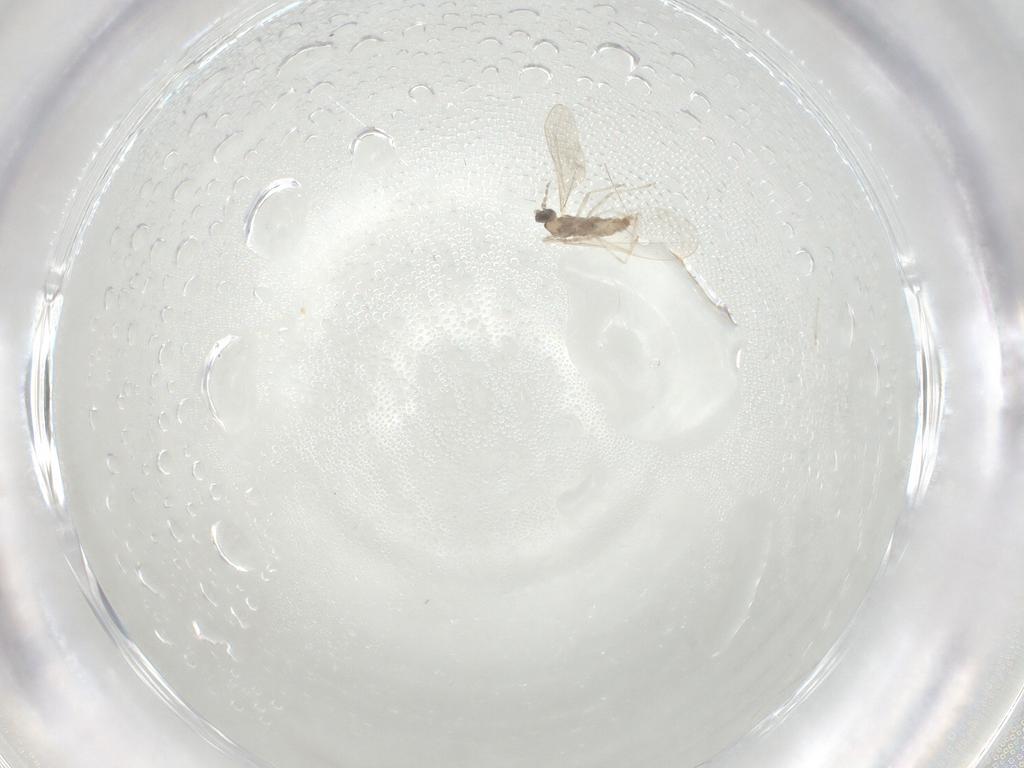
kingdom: Animalia
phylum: Arthropoda
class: Insecta
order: Diptera
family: Cecidomyiidae
